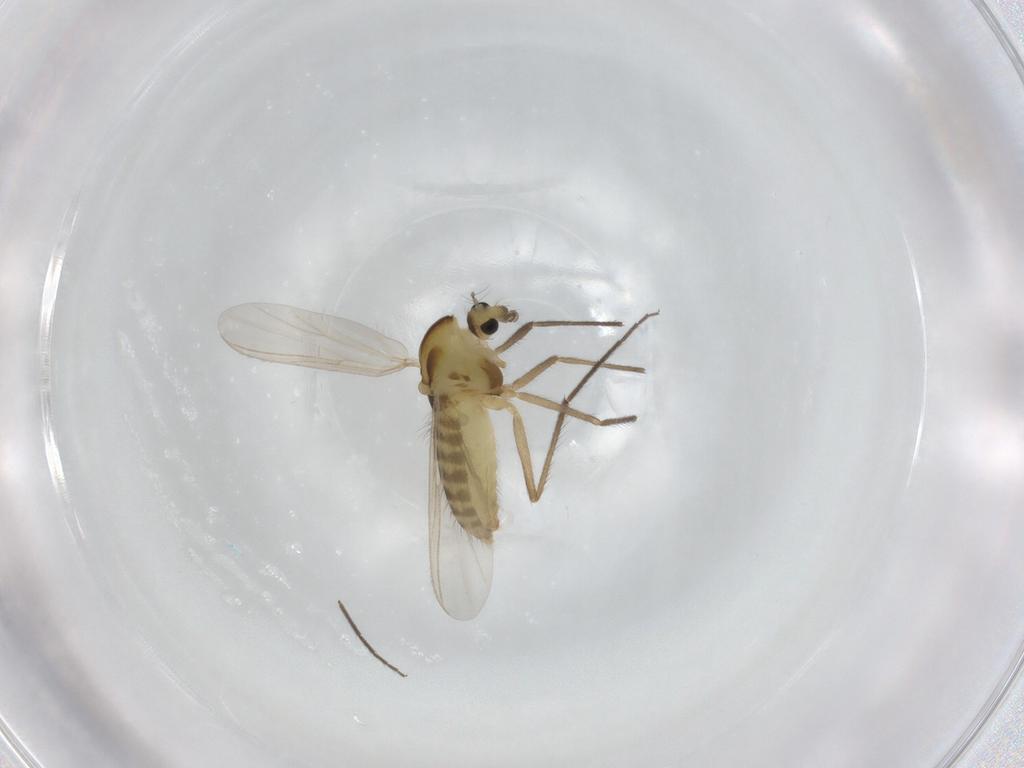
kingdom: Animalia
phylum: Arthropoda
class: Insecta
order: Diptera
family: Chironomidae
